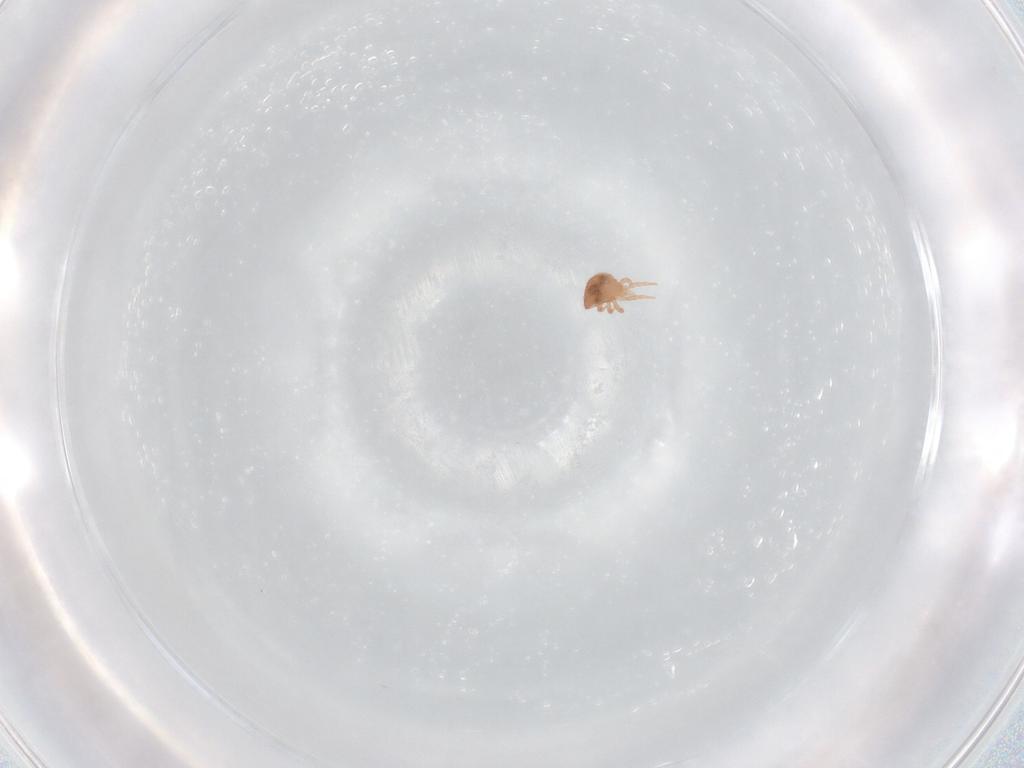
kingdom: Animalia
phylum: Arthropoda
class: Arachnida
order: Mesostigmata
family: Zerconidae
